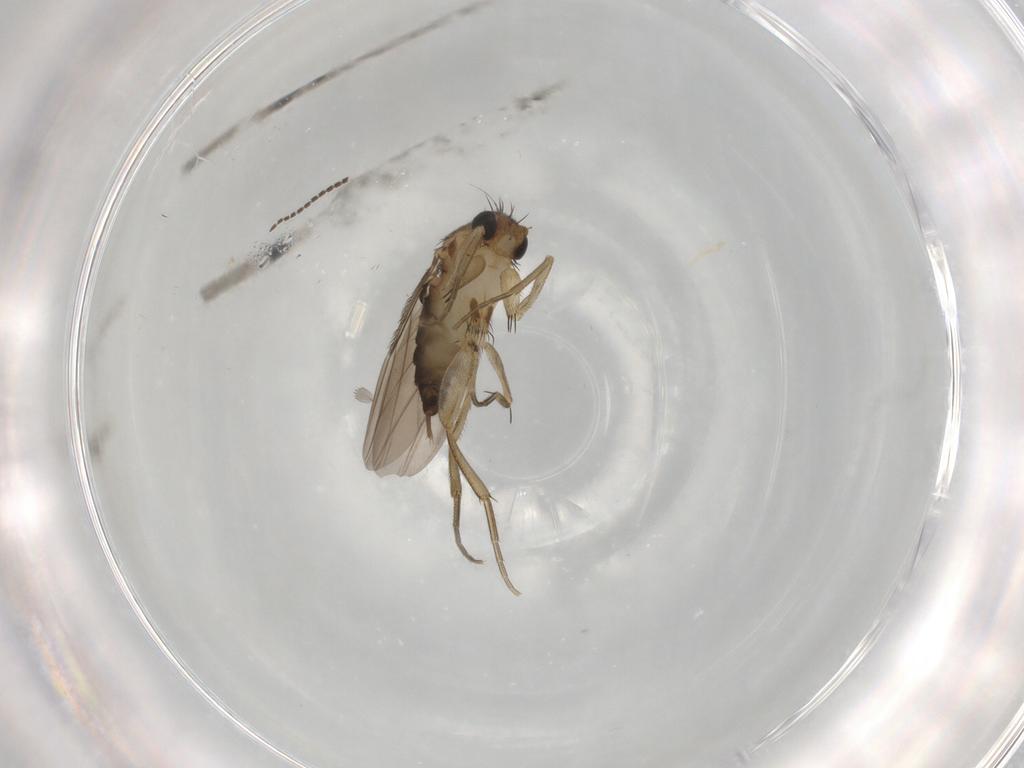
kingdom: Animalia
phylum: Arthropoda
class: Insecta
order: Diptera
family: Phoridae
